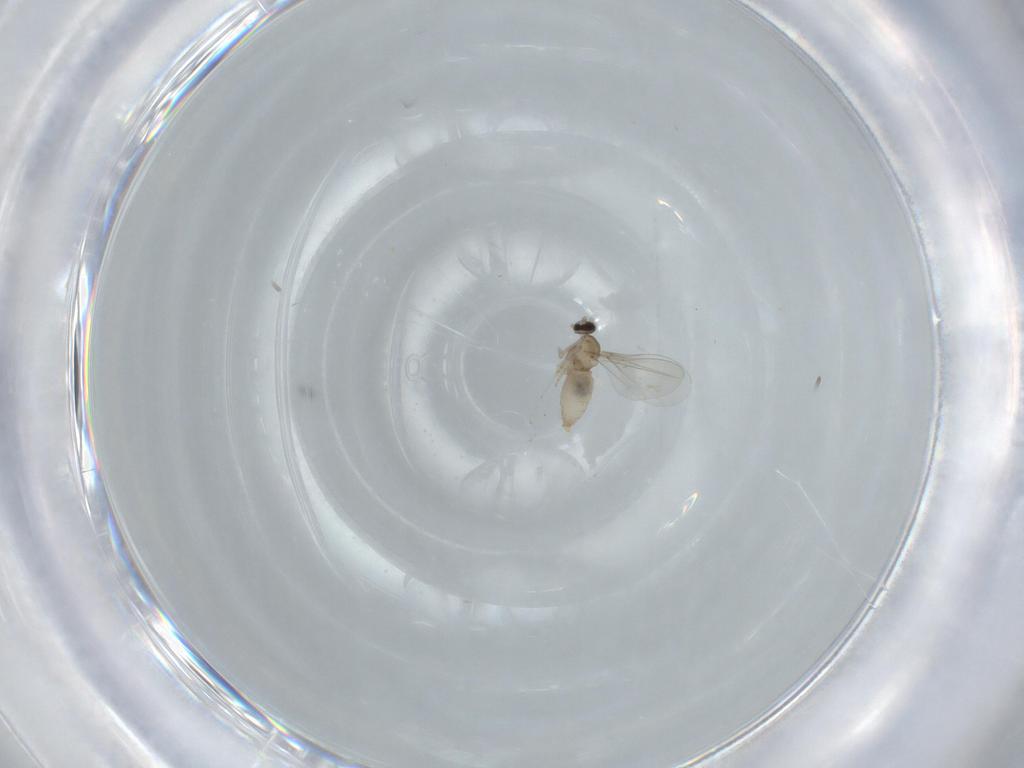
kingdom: Animalia
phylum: Arthropoda
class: Insecta
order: Diptera
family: Cecidomyiidae
